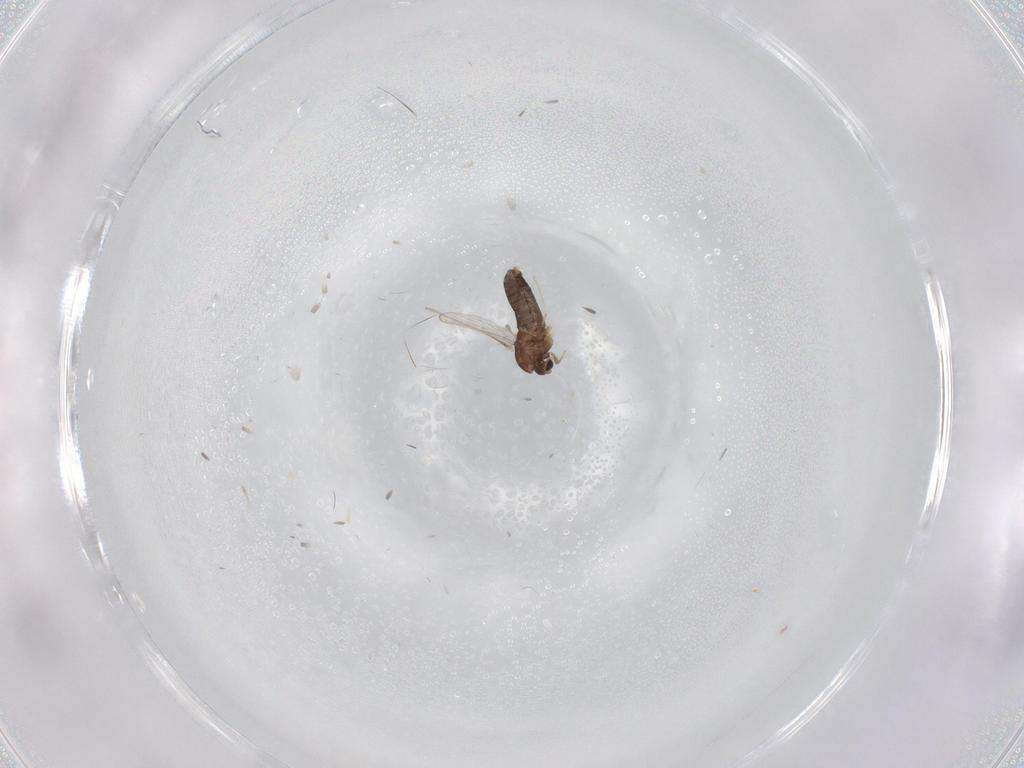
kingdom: Animalia
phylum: Arthropoda
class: Insecta
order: Diptera
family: Chironomidae
